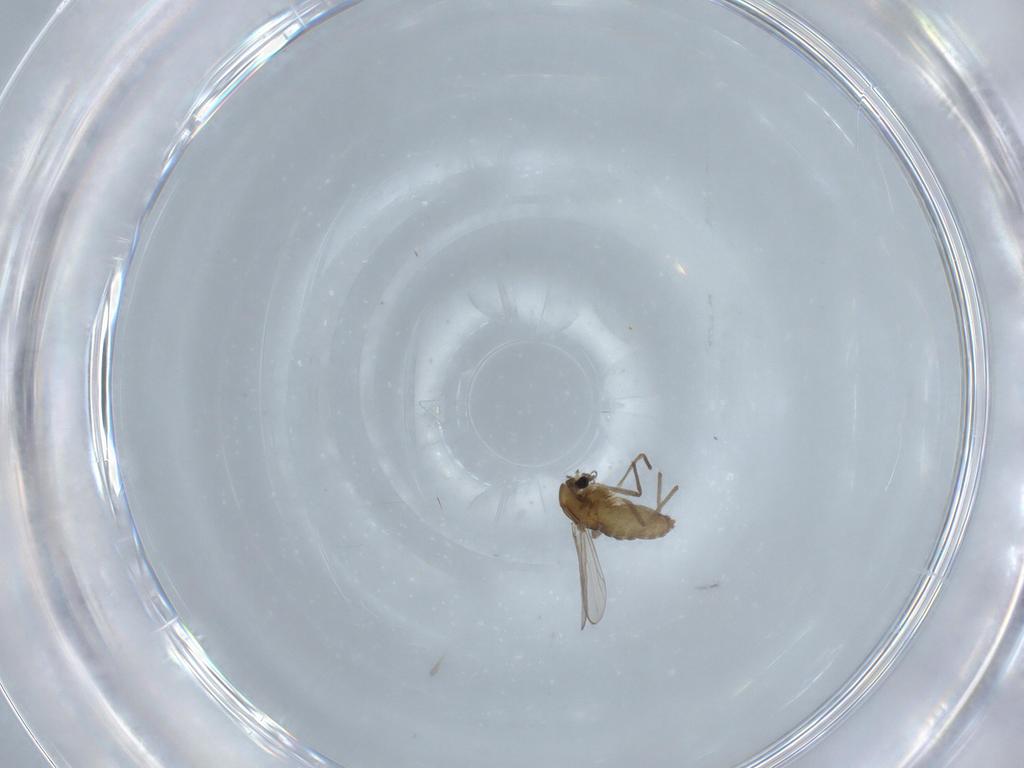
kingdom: Animalia
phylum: Arthropoda
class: Insecta
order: Diptera
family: Chironomidae
